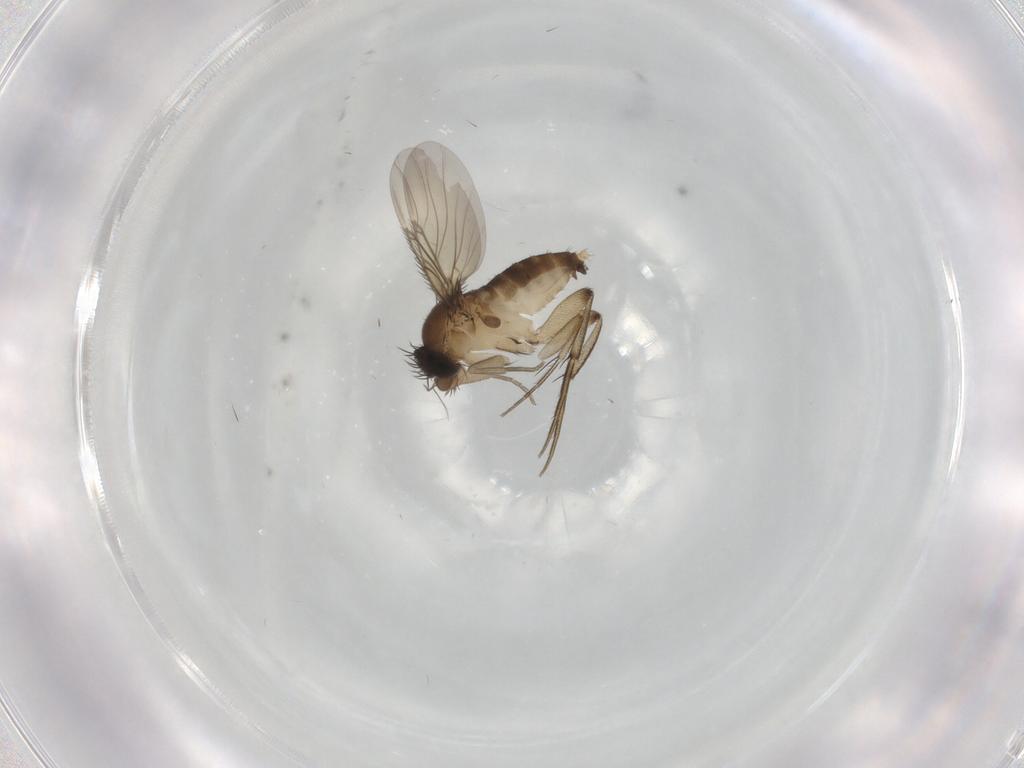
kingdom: Animalia
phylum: Arthropoda
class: Insecta
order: Diptera
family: Phoridae
